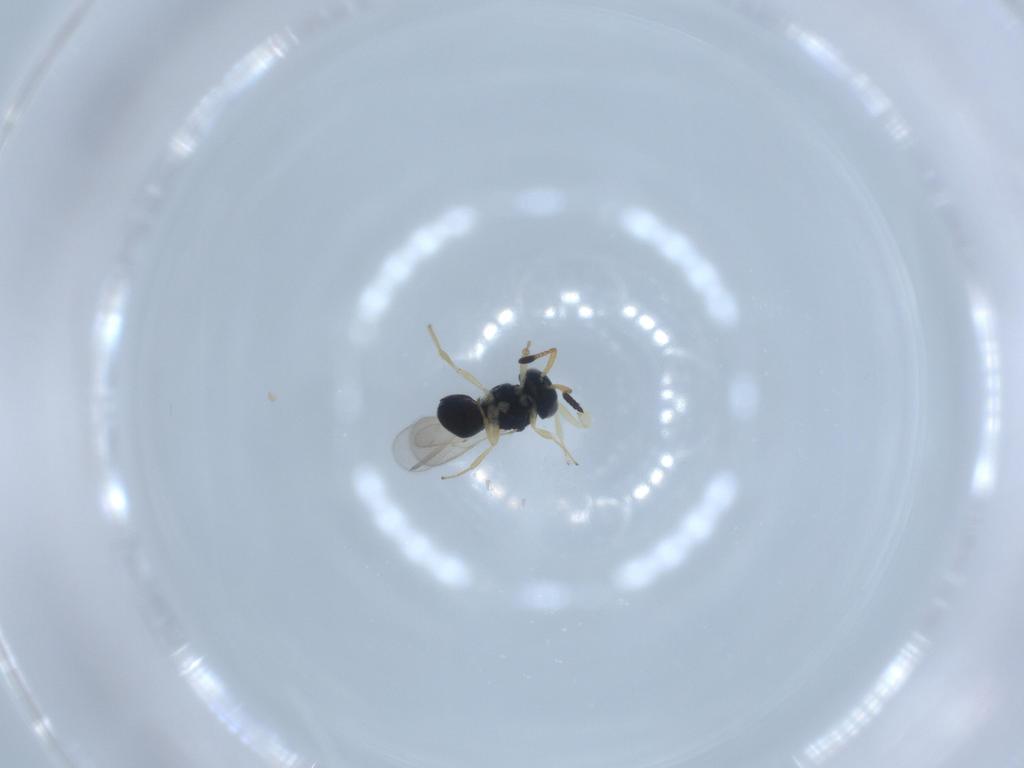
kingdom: Animalia
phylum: Arthropoda
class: Insecta
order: Hymenoptera
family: Scelionidae
